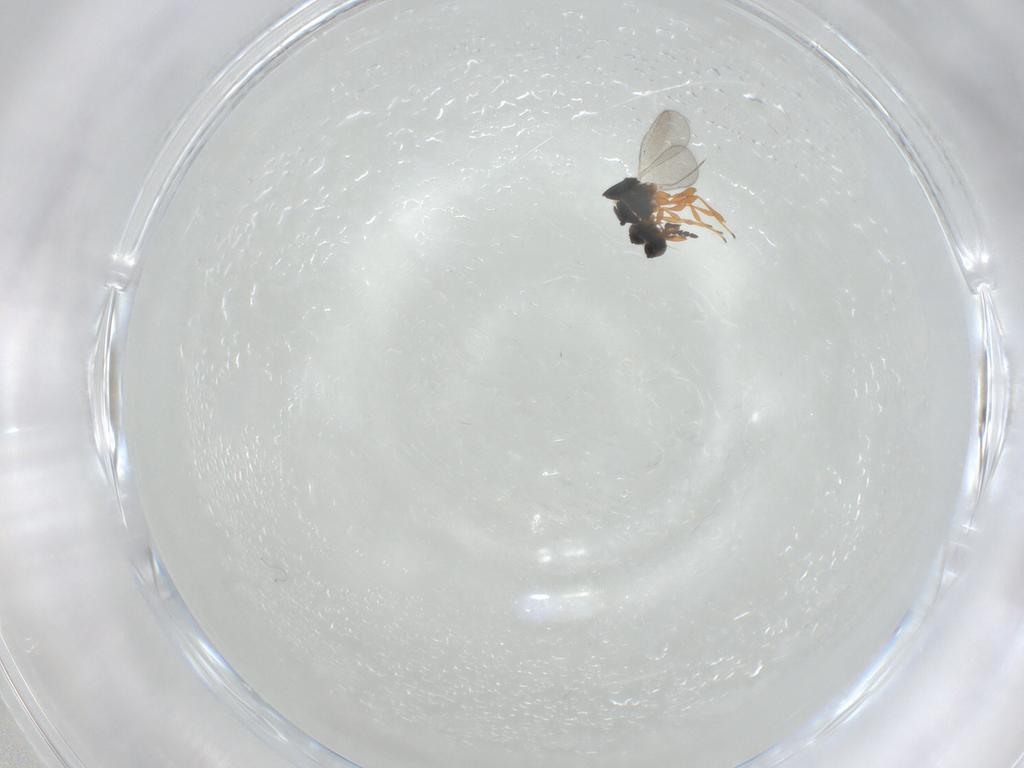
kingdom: Animalia
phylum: Arthropoda
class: Insecta
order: Hymenoptera
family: Platygastridae
